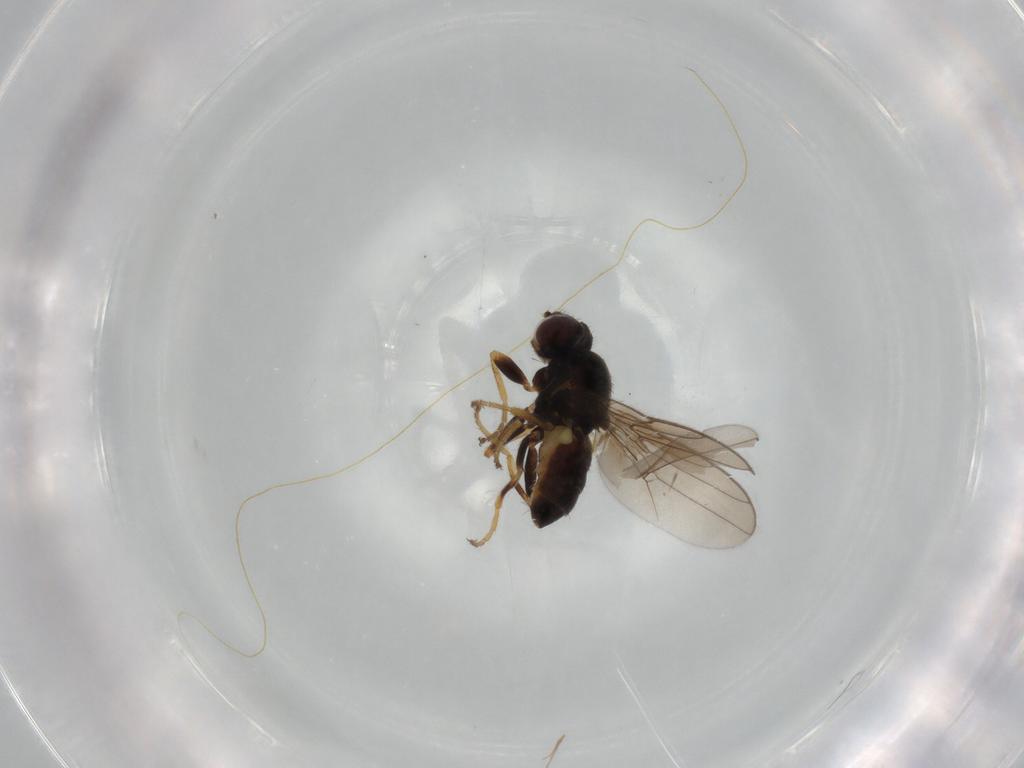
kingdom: Animalia
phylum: Arthropoda
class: Insecta
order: Diptera
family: Chloropidae
